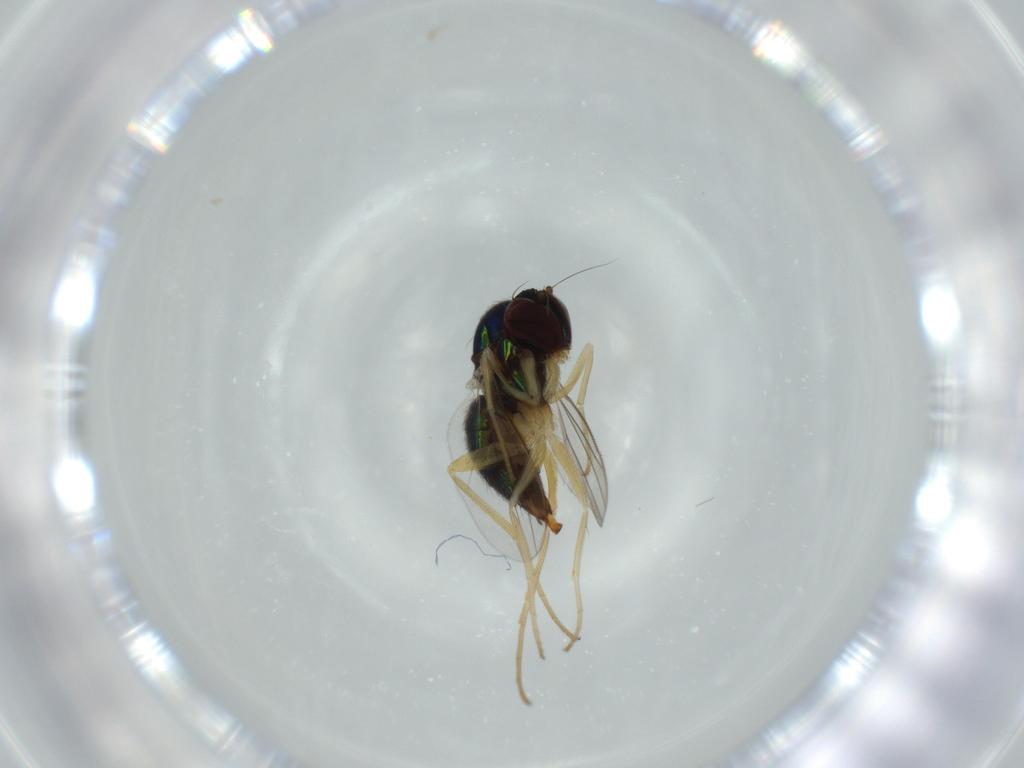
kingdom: Animalia
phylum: Arthropoda
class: Insecta
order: Diptera
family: Dolichopodidae
